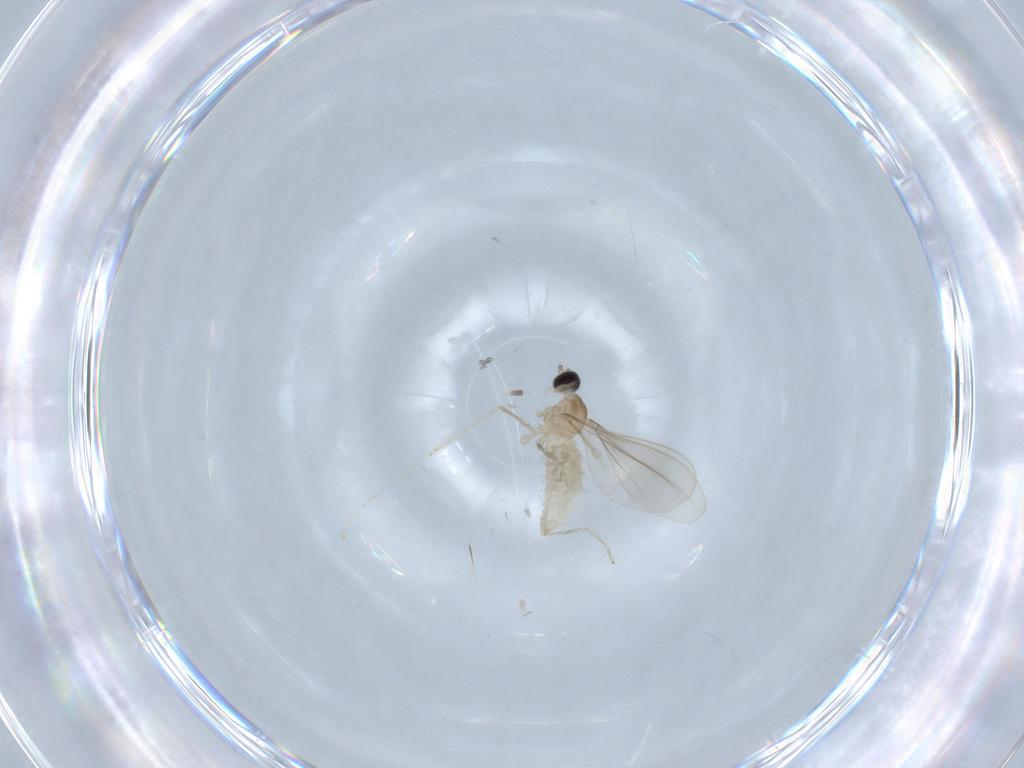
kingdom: Animalia
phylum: Arthropoda
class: Insecta
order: Diptera
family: Cecidomyiidae
